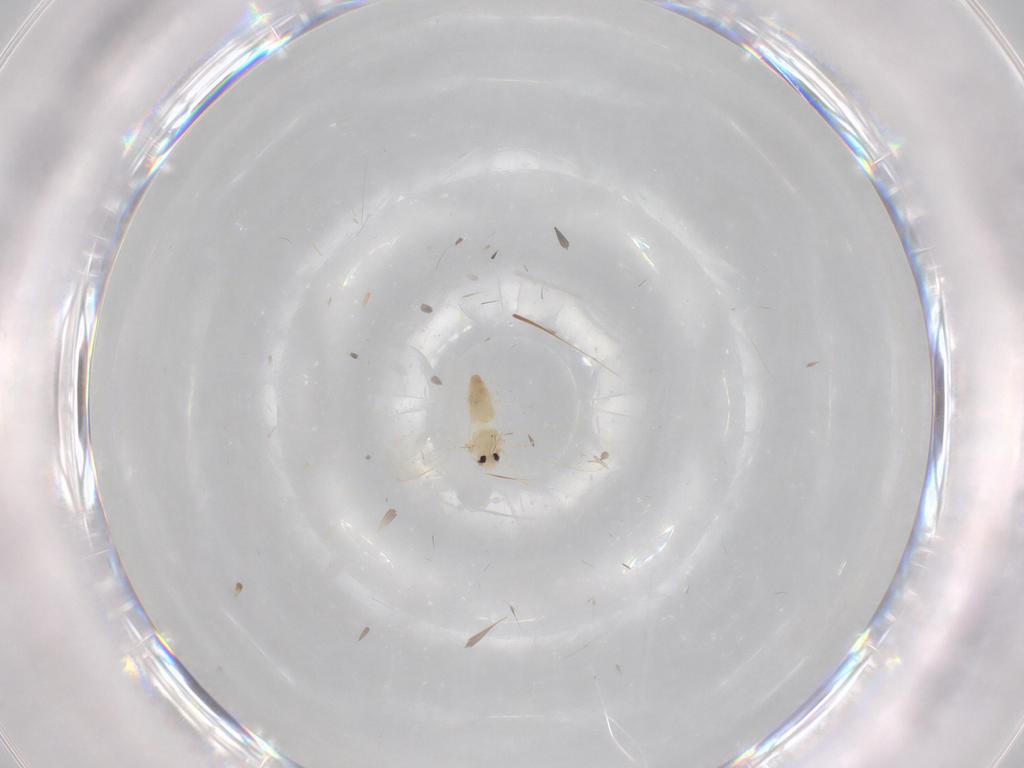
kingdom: Animalia
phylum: Arthropoda
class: Insecta
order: Hemiptera
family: Aleyrodidae
